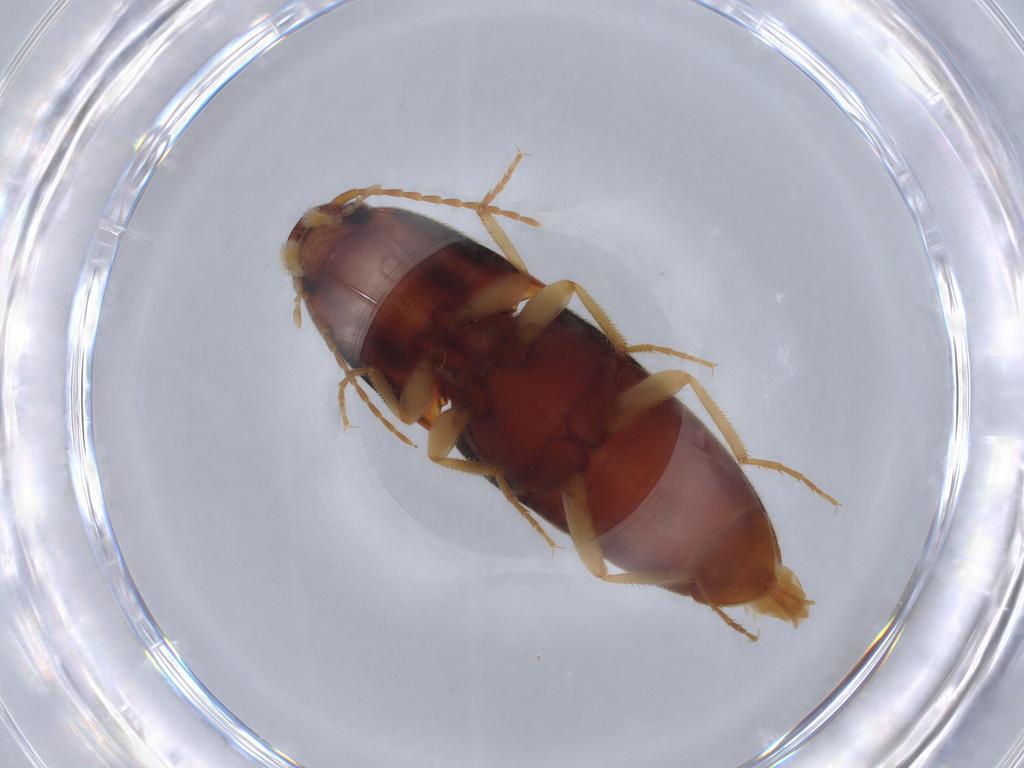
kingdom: Animalia
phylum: Arthropoda
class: Insecta
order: Coleoptera
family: Elateridae
